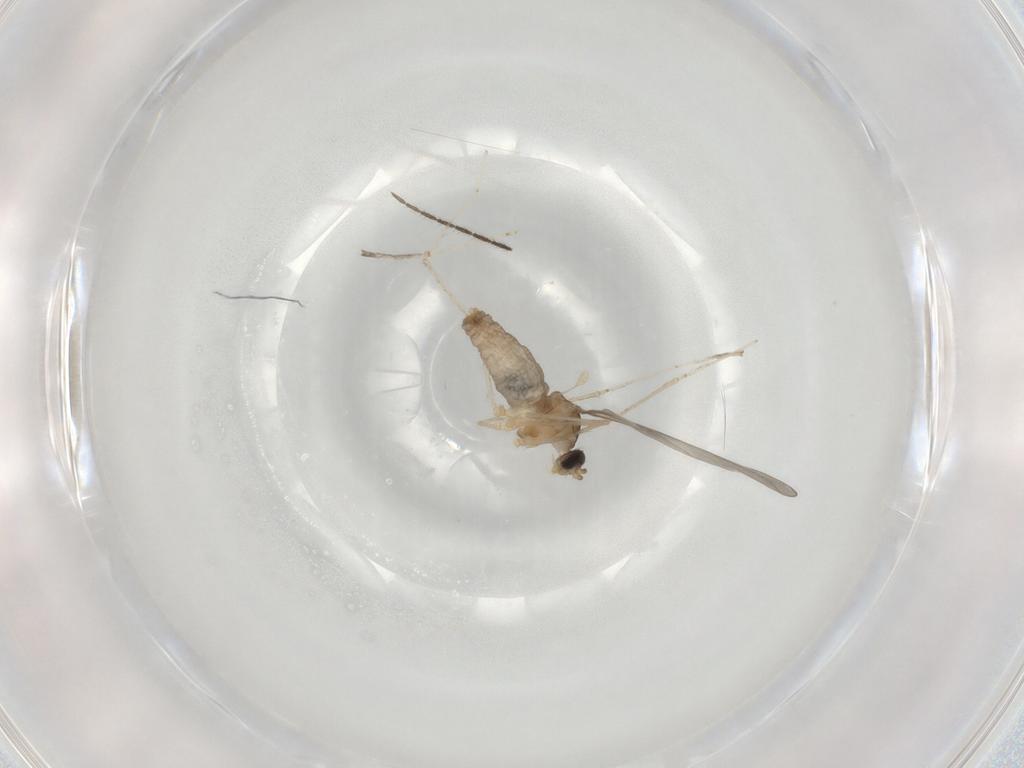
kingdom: Animalia
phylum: Arthropoda
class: Insecta
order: Diptera
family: Cecidomyiidae
